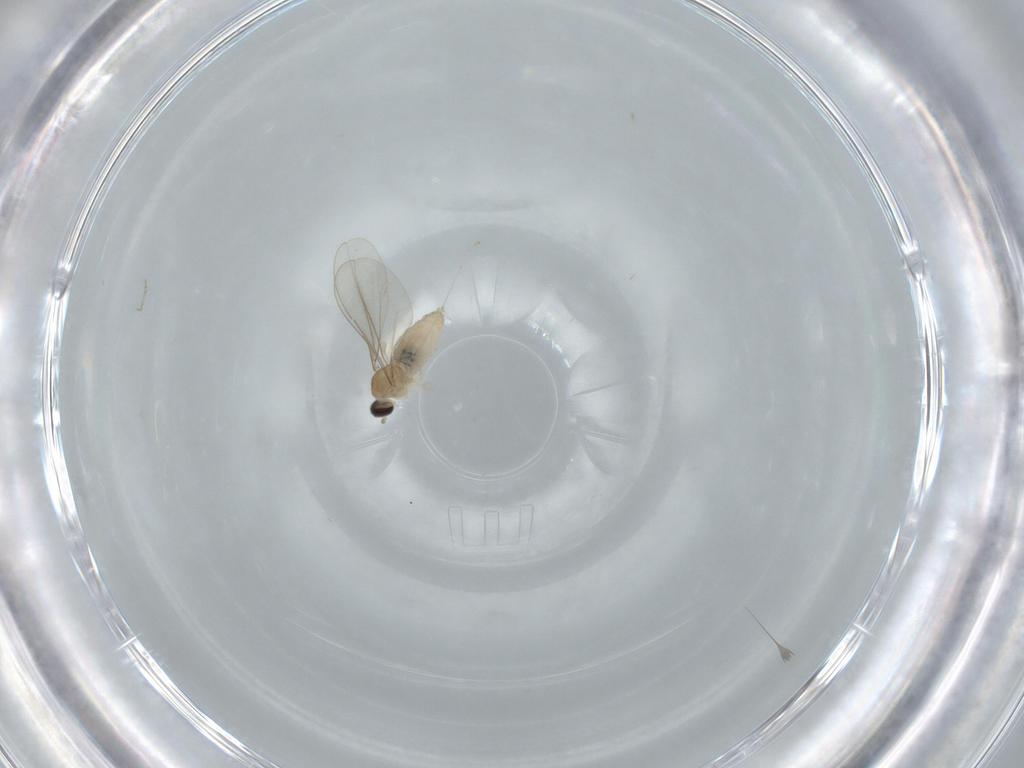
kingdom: Animalia
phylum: Arthropoda
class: Insecta
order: Diptera
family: Cecidomyiidae
